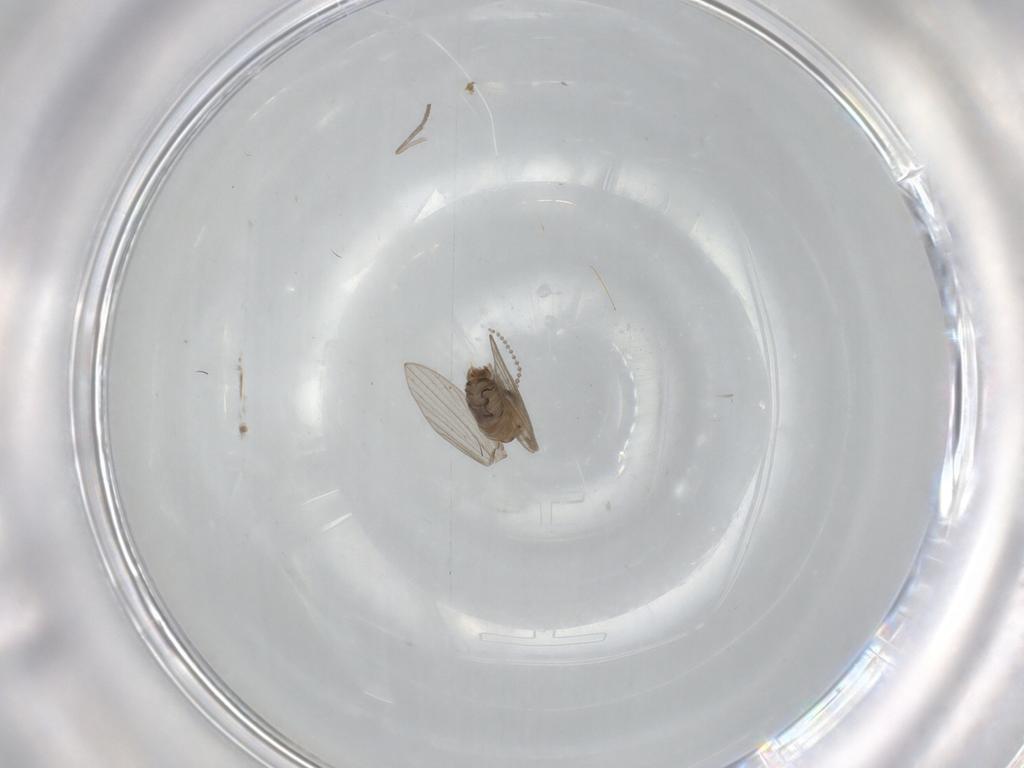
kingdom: Animalia
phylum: Arthropoda
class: Insecta
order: Diptera
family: Psychodidae
